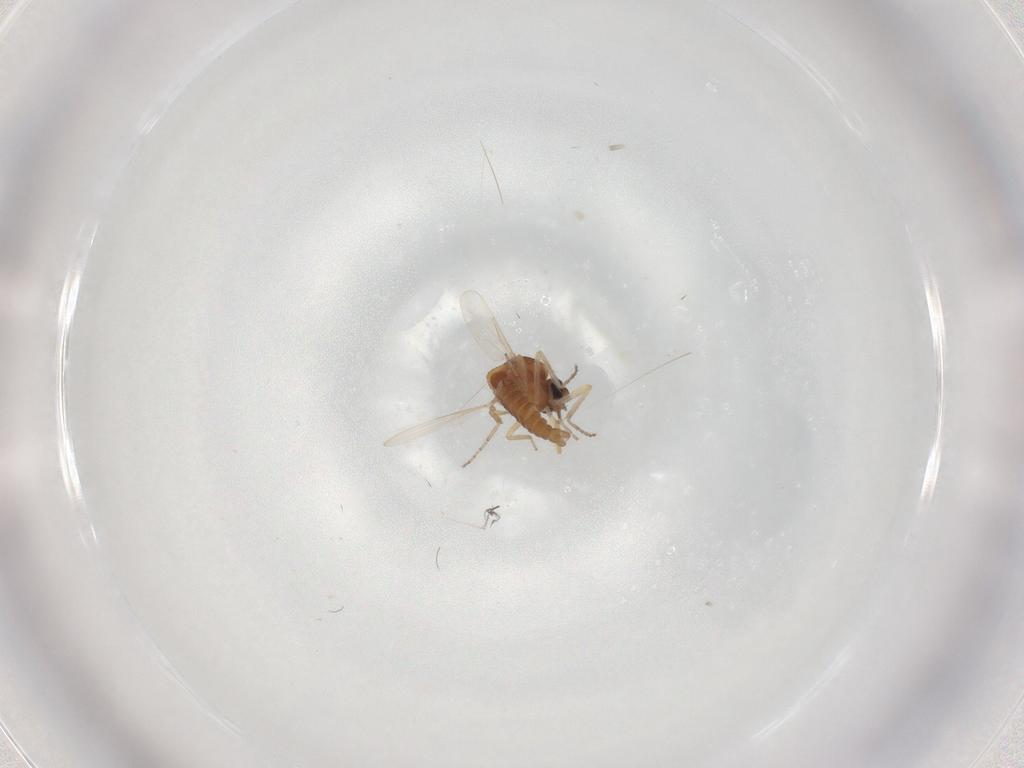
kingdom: Animalia
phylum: Arthropoda
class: Insecta
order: Diptera
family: Ceratopogonidae
